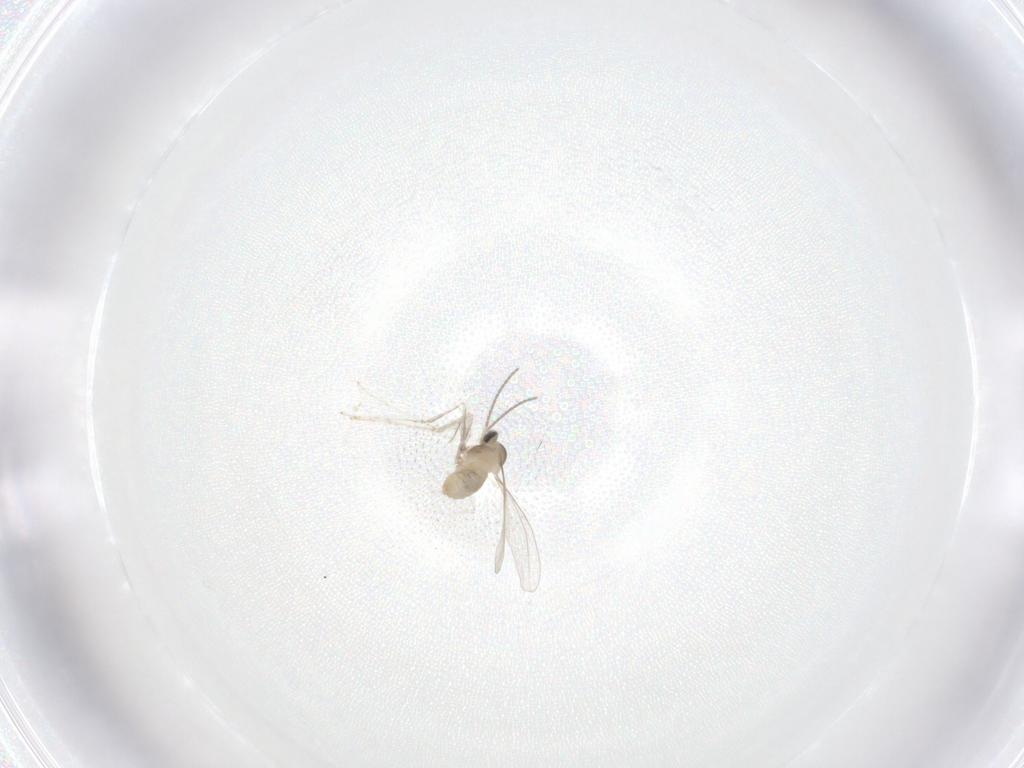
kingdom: Animalia
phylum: Arthropoda
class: Insecta
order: Diptera
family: Cecidomyiidae
